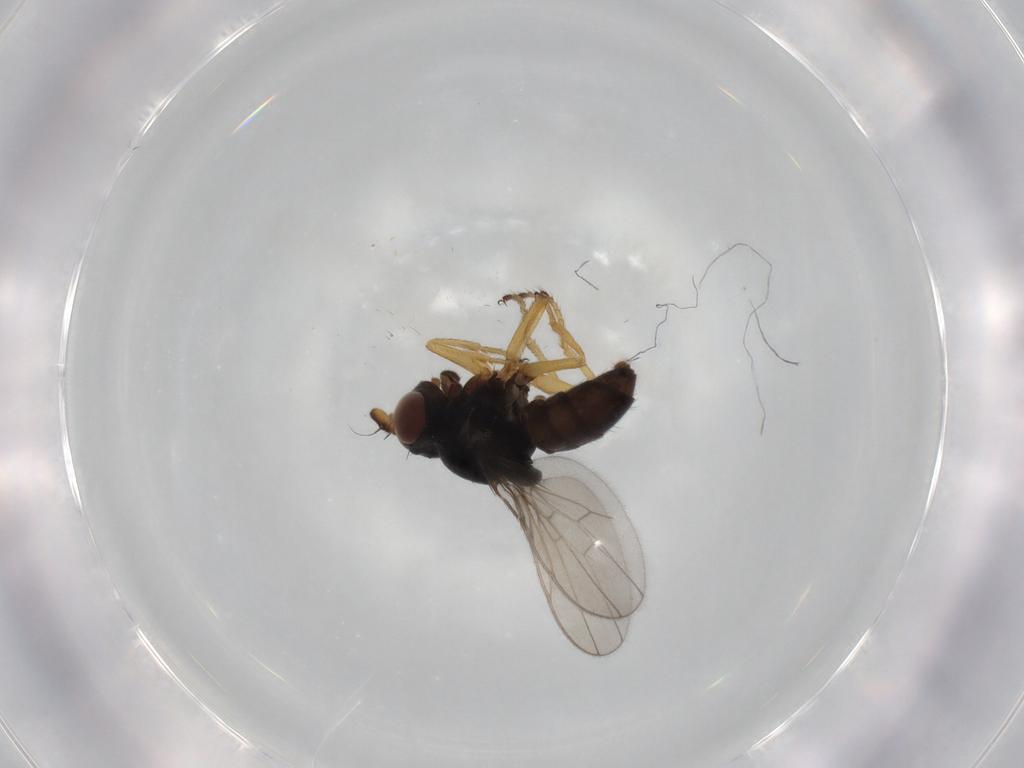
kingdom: Animalia
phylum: Arthropoda
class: Insecta
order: Diptera
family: Ephydridae
